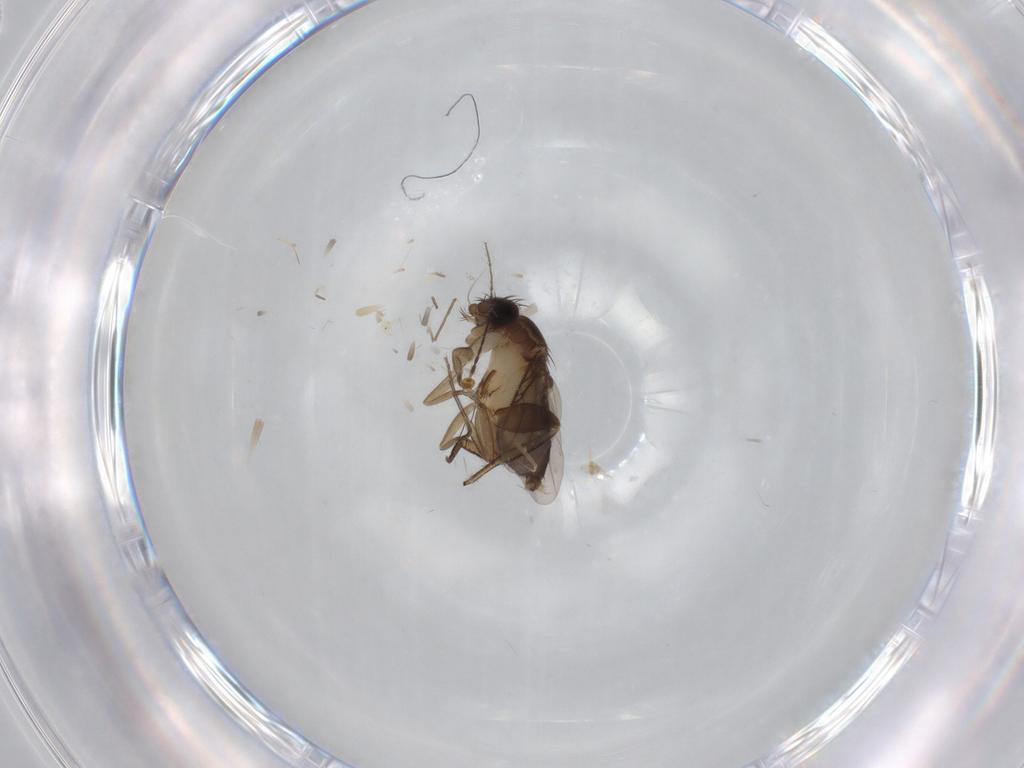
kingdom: Animalia
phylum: Arthropoda
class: Insecta
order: Diptera
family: Phoridae
